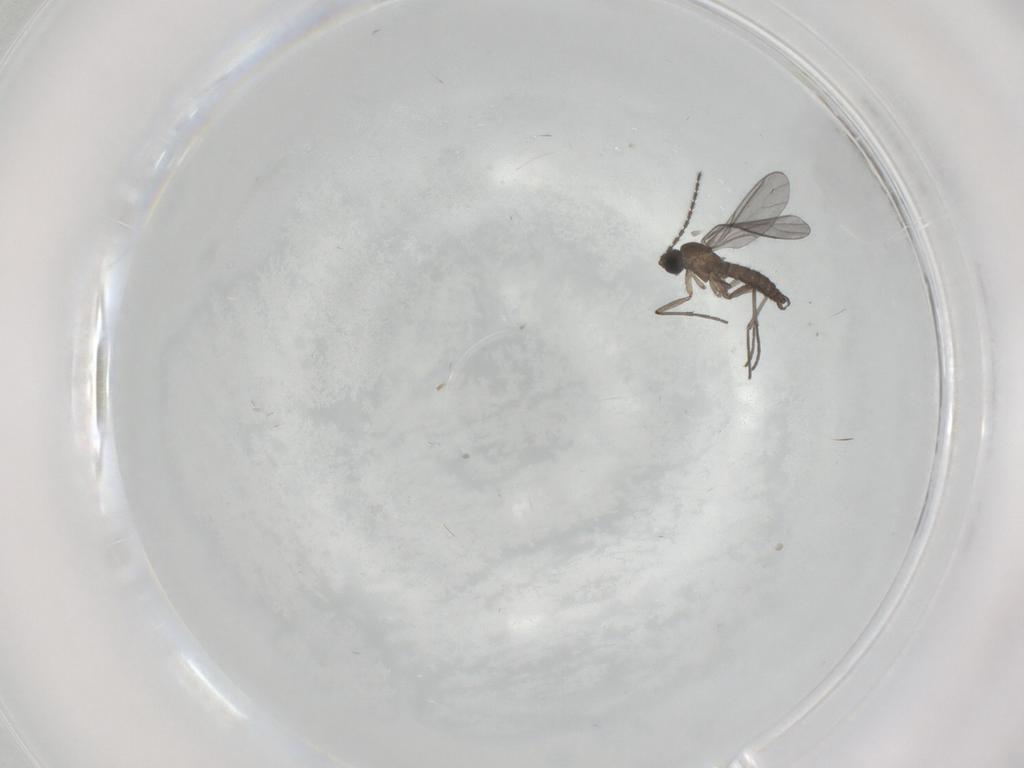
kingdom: Animalia
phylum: Arthropoda
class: Insecta
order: Diptera
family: Sciaridae
